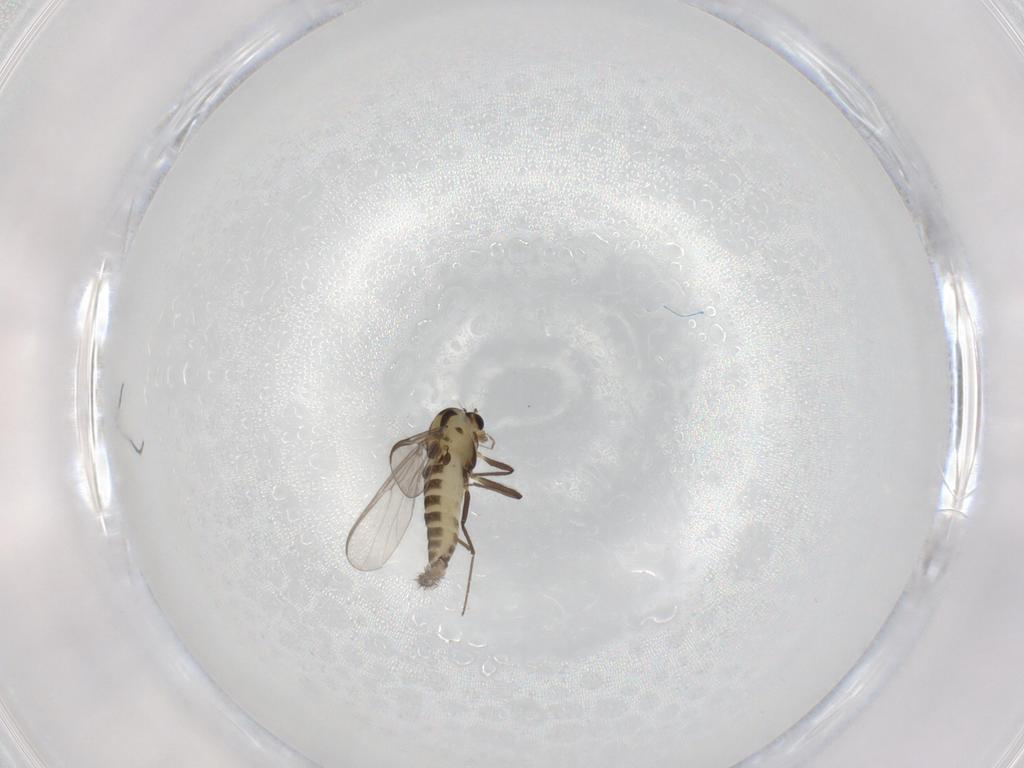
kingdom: Animalia
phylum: Arthropoda
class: Insecta
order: Diptera
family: Chironomidae
